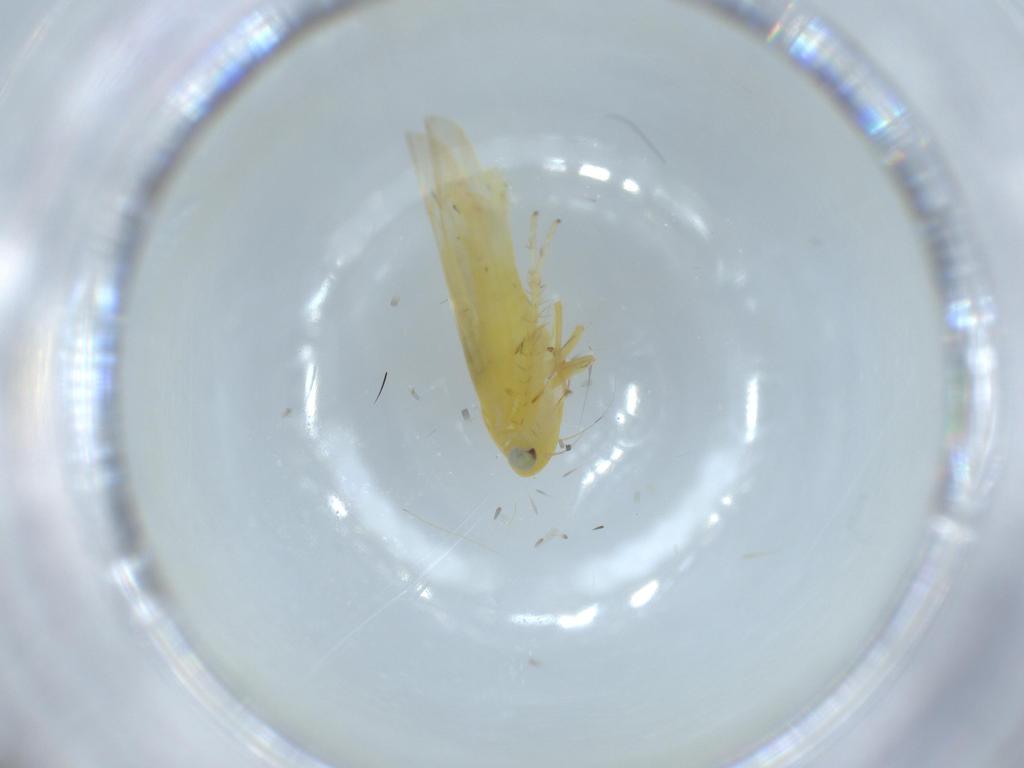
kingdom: Animalia
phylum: Arthropoda
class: Insecta
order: Hemiptera
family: Cicadellidae
